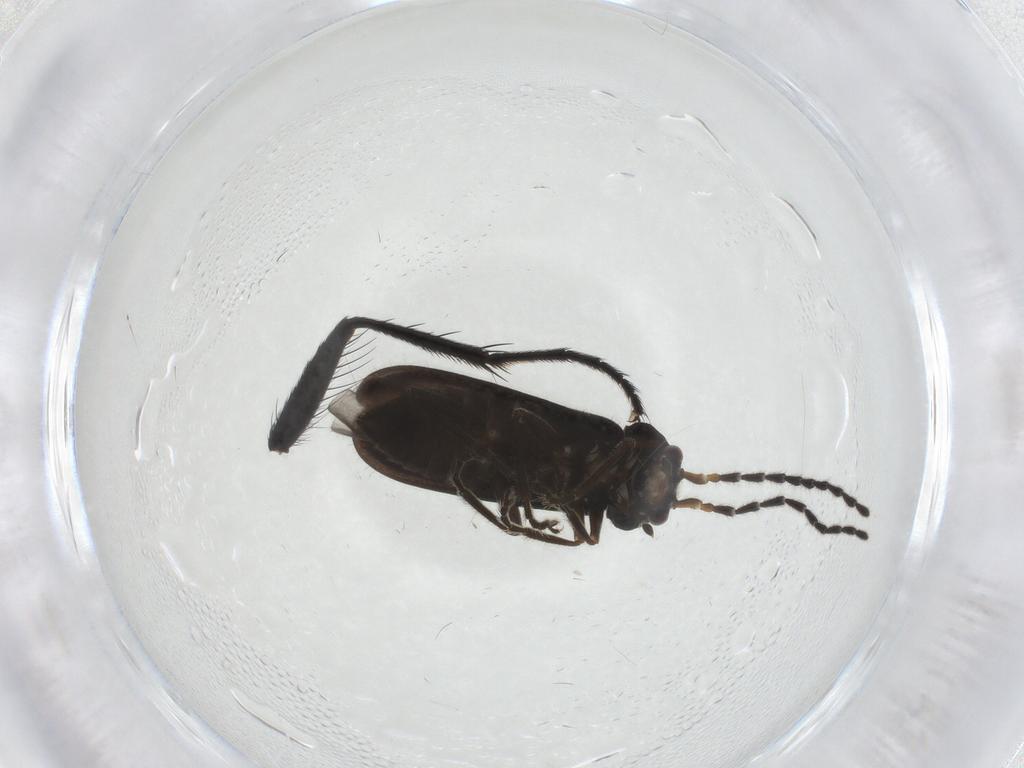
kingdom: Animalia
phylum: Arthropoda
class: Insecta
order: Coleoptera
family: Cantharidae
